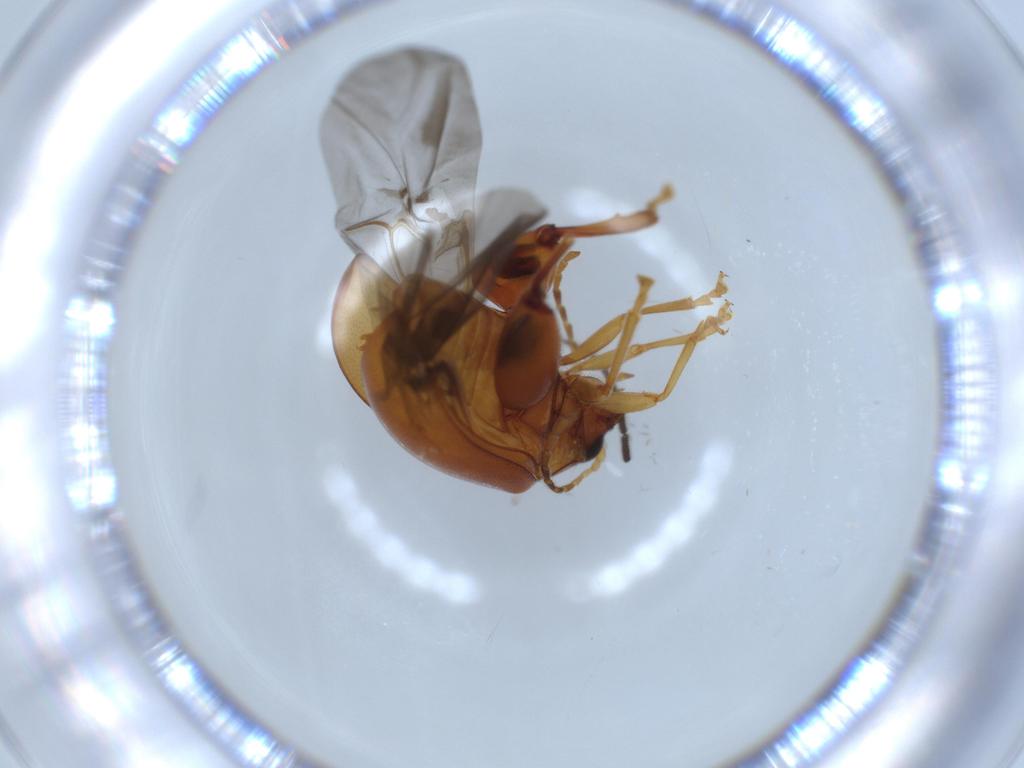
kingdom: Animalia
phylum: Arthropoda
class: Insecta
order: Coleoptera
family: Chrysomelidae
